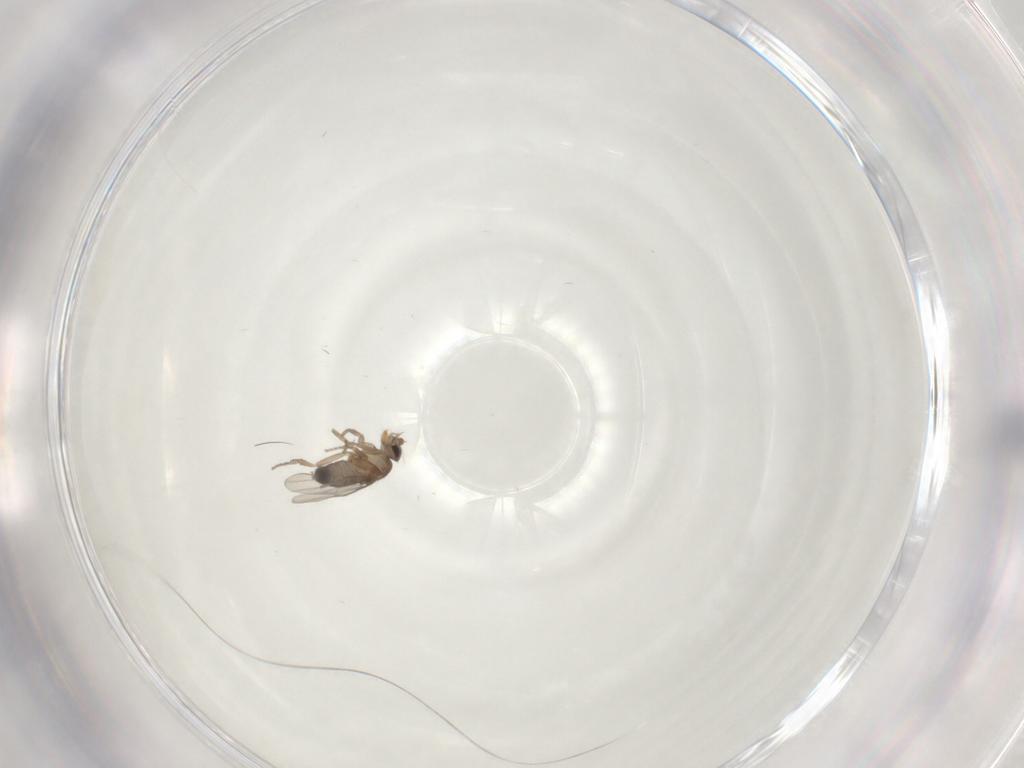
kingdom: Animalia
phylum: Arthropoda
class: Insecta
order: Diptera
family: Phoridae
